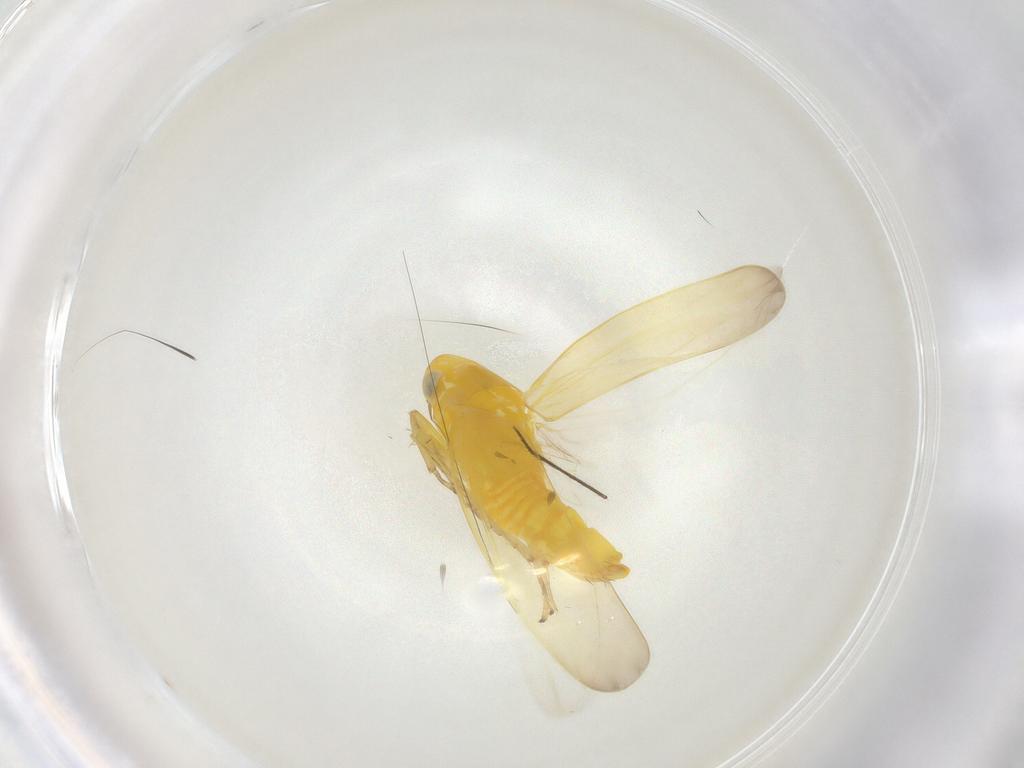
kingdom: Animalia
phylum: Arthropoda
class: Insecta
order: Hemiptera
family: Cicadellidae
